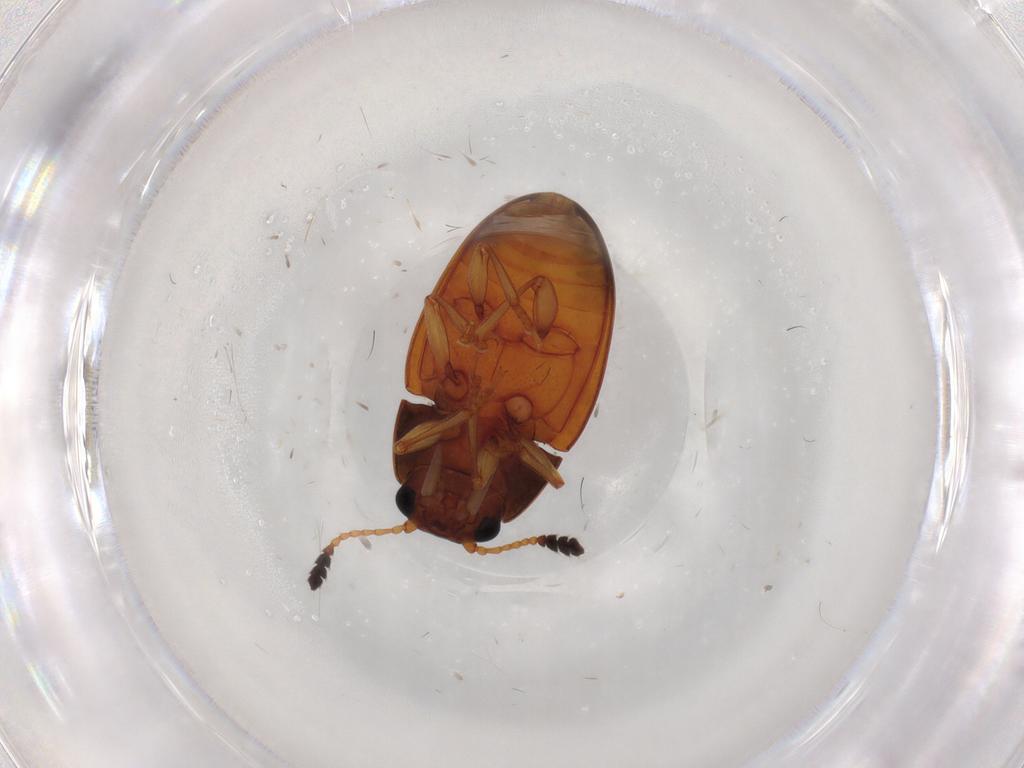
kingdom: Animalia
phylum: Arthropoda
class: Insecta
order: Coleoptera
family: Erotylidae
